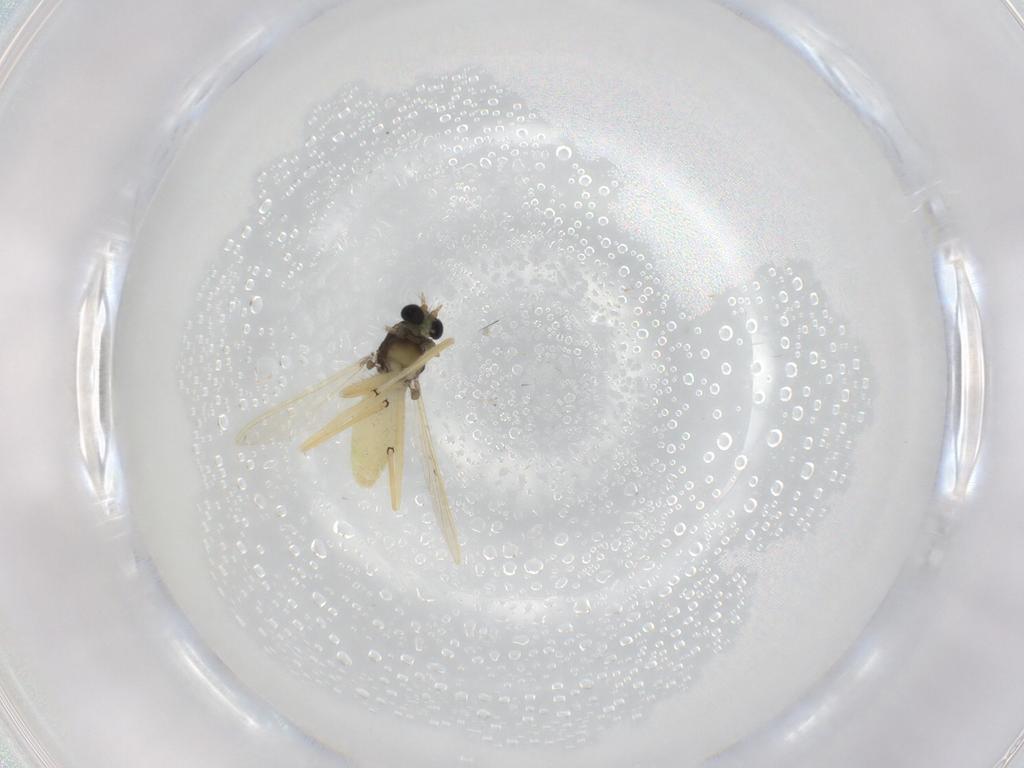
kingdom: Animalia
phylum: Arthropoda
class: Insecta
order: Diptera
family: Chironomidae
